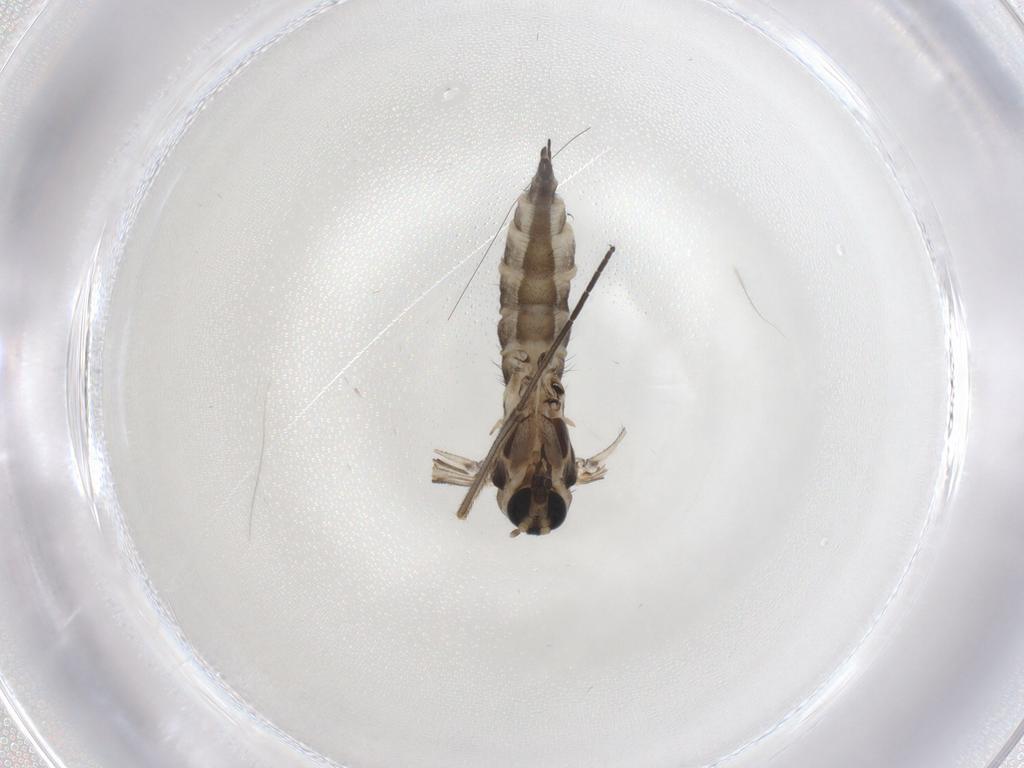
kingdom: Animalia
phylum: Arthropoda
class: Insecta
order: Diptera
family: Sciaridae
